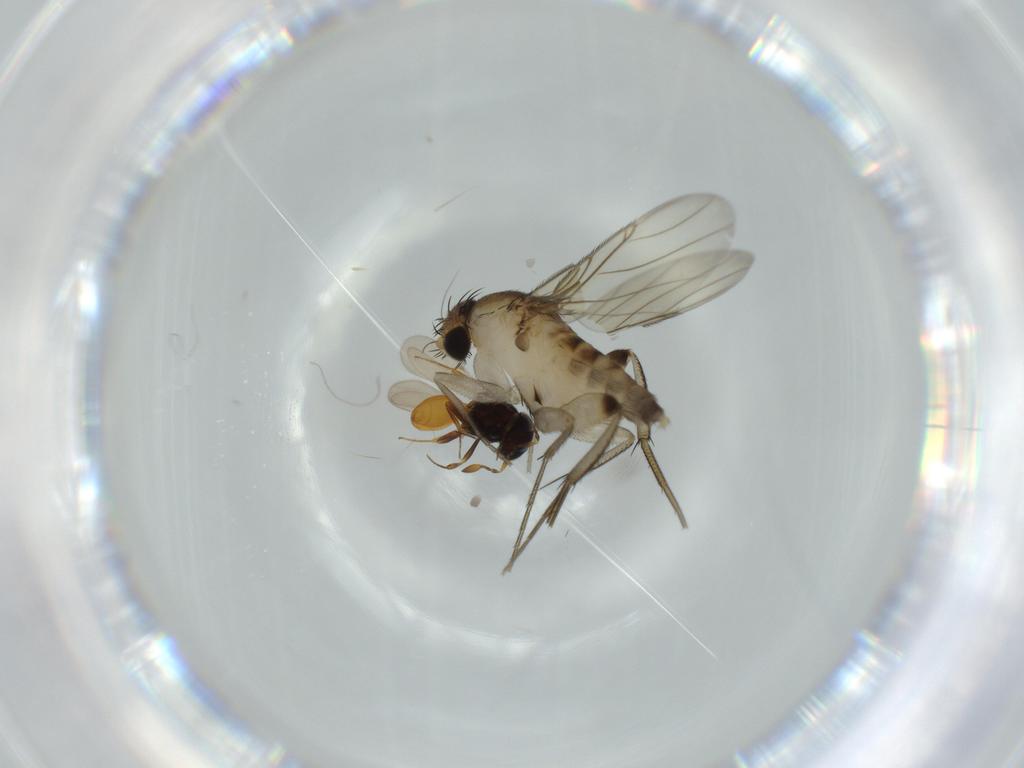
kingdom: Animalia
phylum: Arthropoda
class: Insecta
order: Diptera
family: Phoridae
